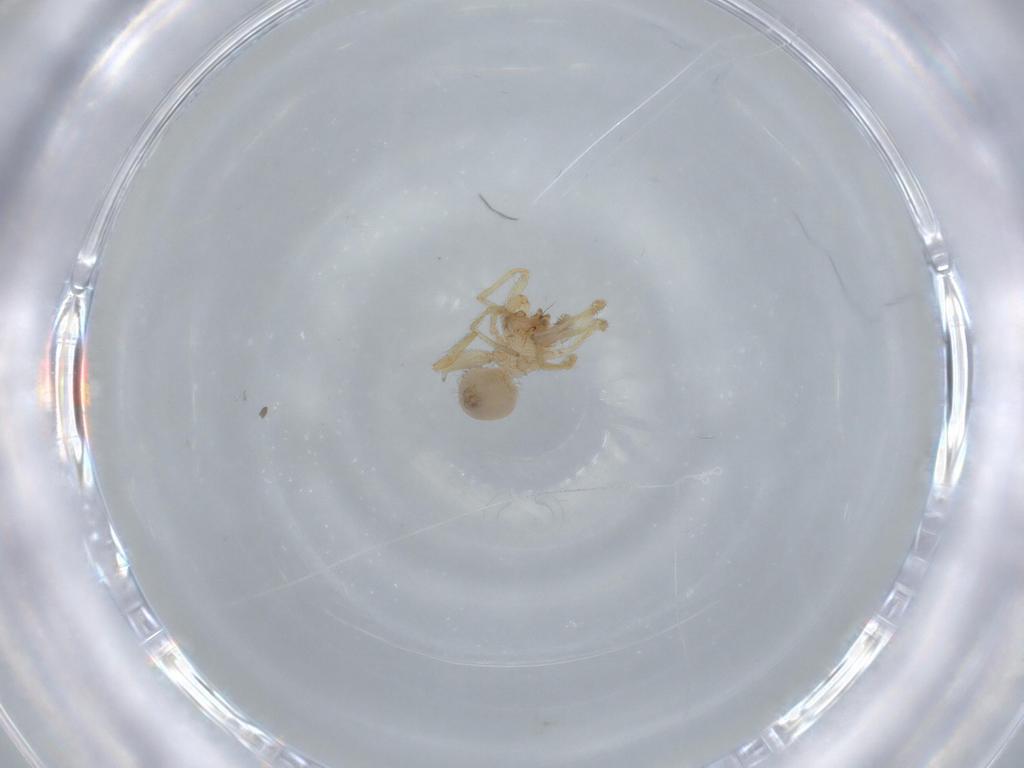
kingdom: Animalia
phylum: Arthropoda
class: Arachnida
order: Araneae
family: Oonopidae
